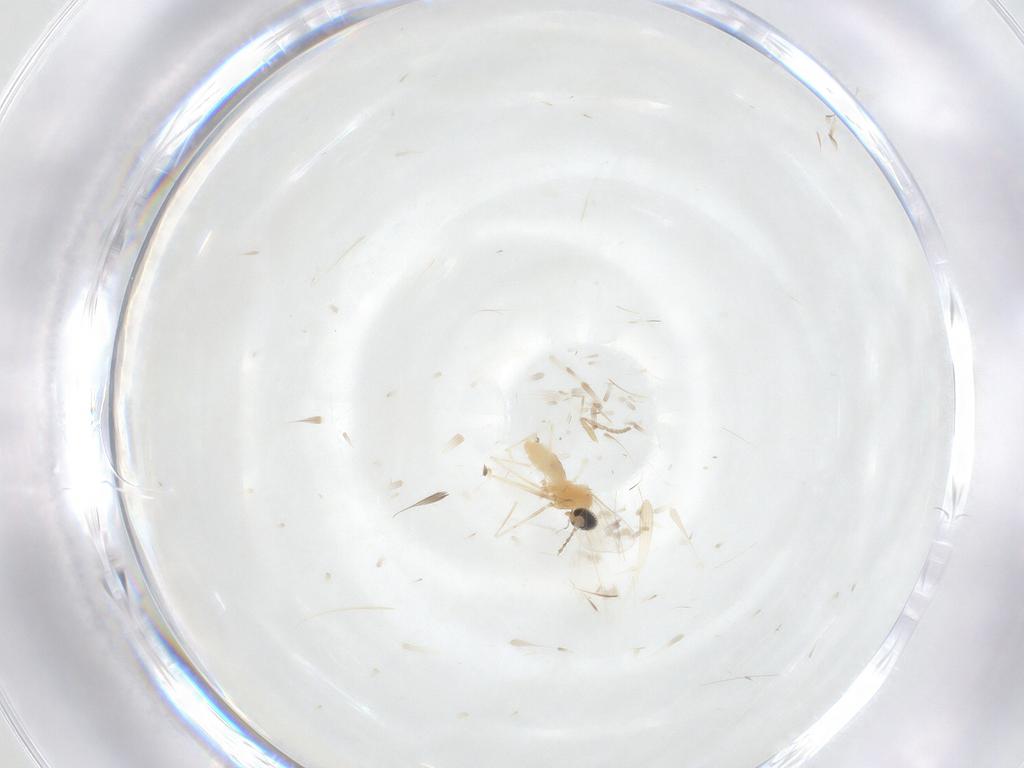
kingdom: Animalia
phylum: Arthropoda
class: Insecta
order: Diptera
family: Cecidomyiidae
